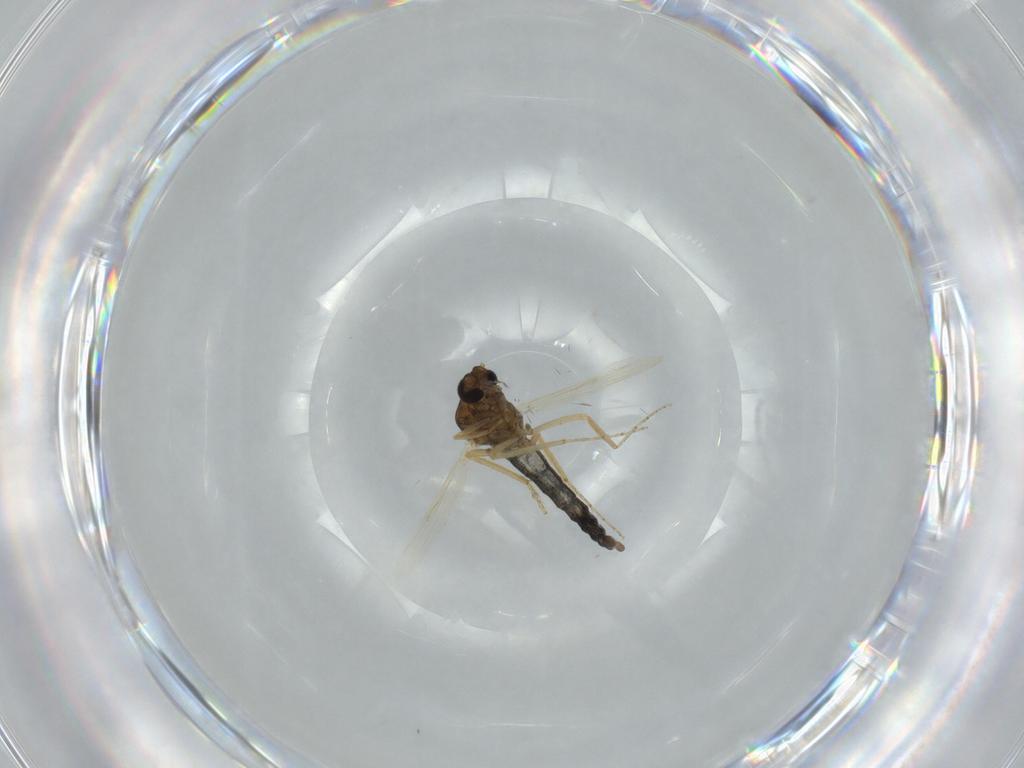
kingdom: Animalia
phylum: Arthropoda
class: Insecta
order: Diptera
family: Ceratopogonidae
